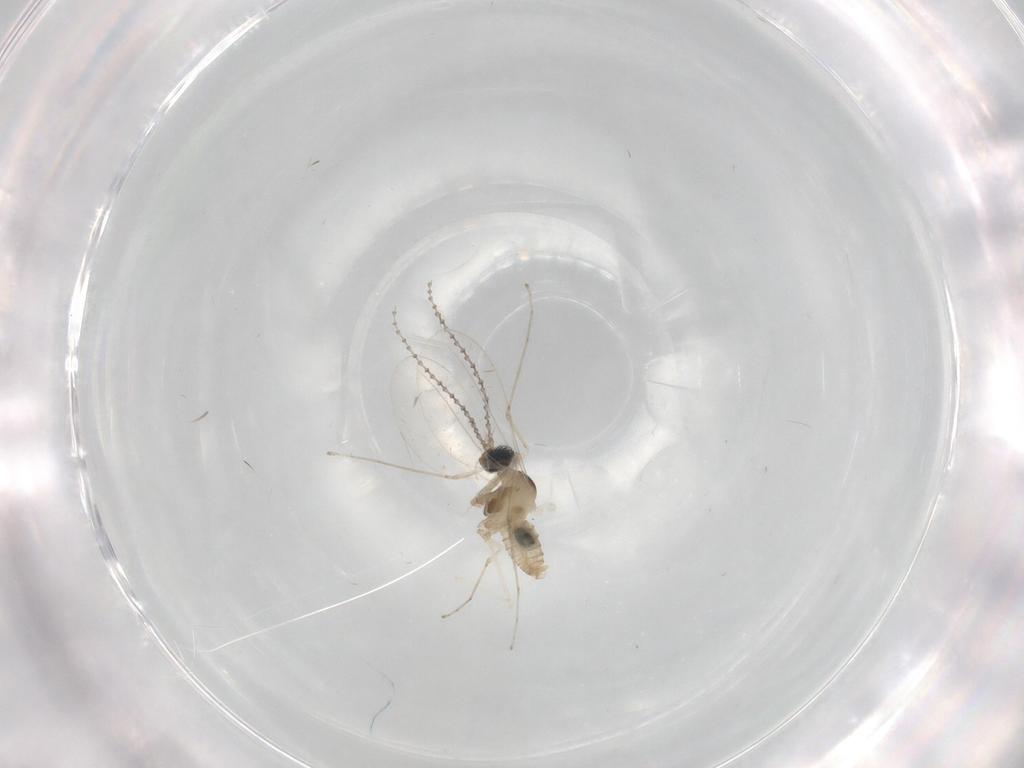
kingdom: Animalia
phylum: Arthropoda
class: Insecta
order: Diptera
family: Cecidomyiidae
